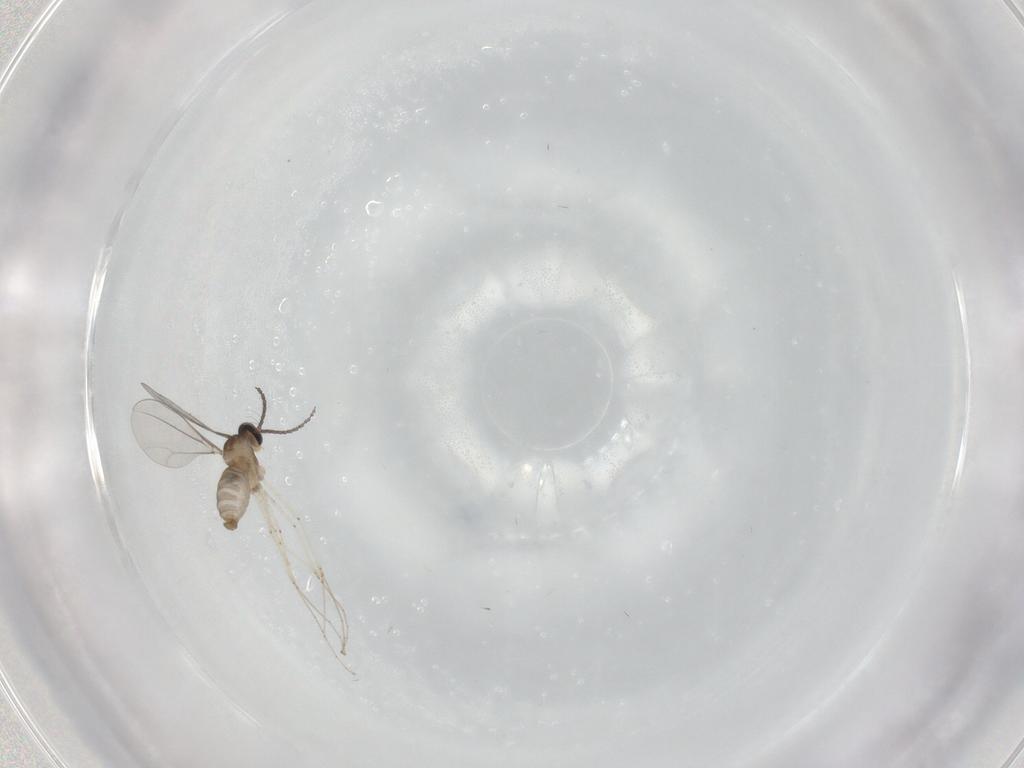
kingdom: Animalia
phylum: Arthropoda
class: Insecta
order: Diptera
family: Cecidomyiidae
